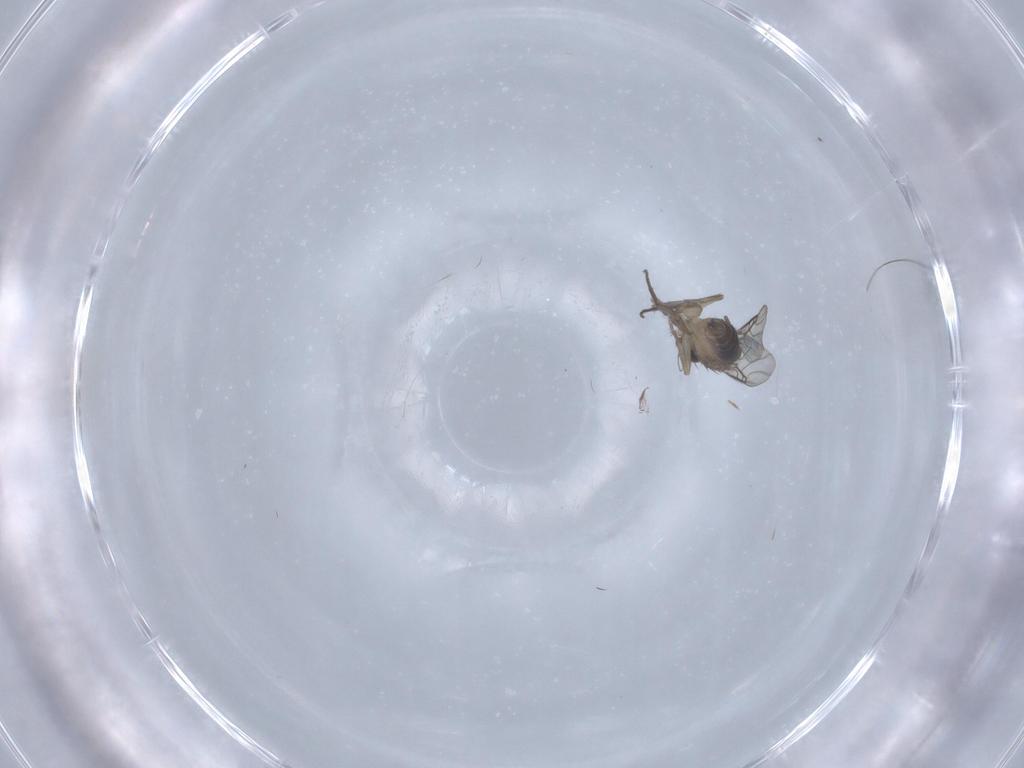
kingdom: Animalia
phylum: Arthropoda
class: Insecta
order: Diptera
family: Phoridae
